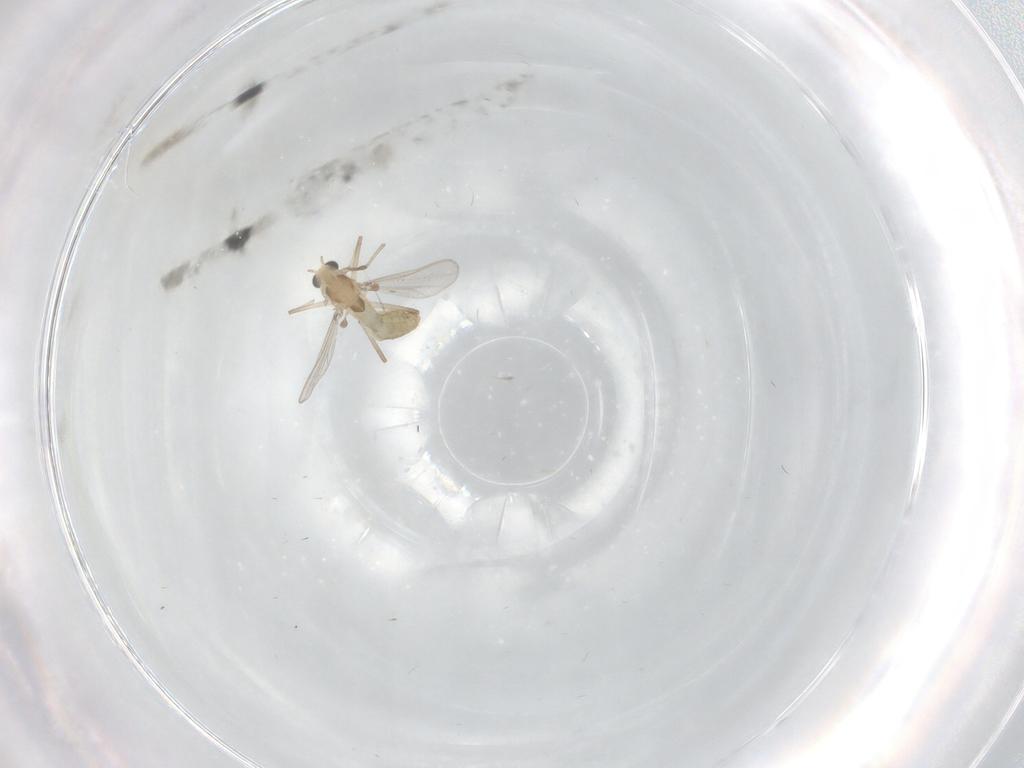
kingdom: Animalia
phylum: Arthropoda
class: Insecta
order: Diptera
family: Chironomidae
